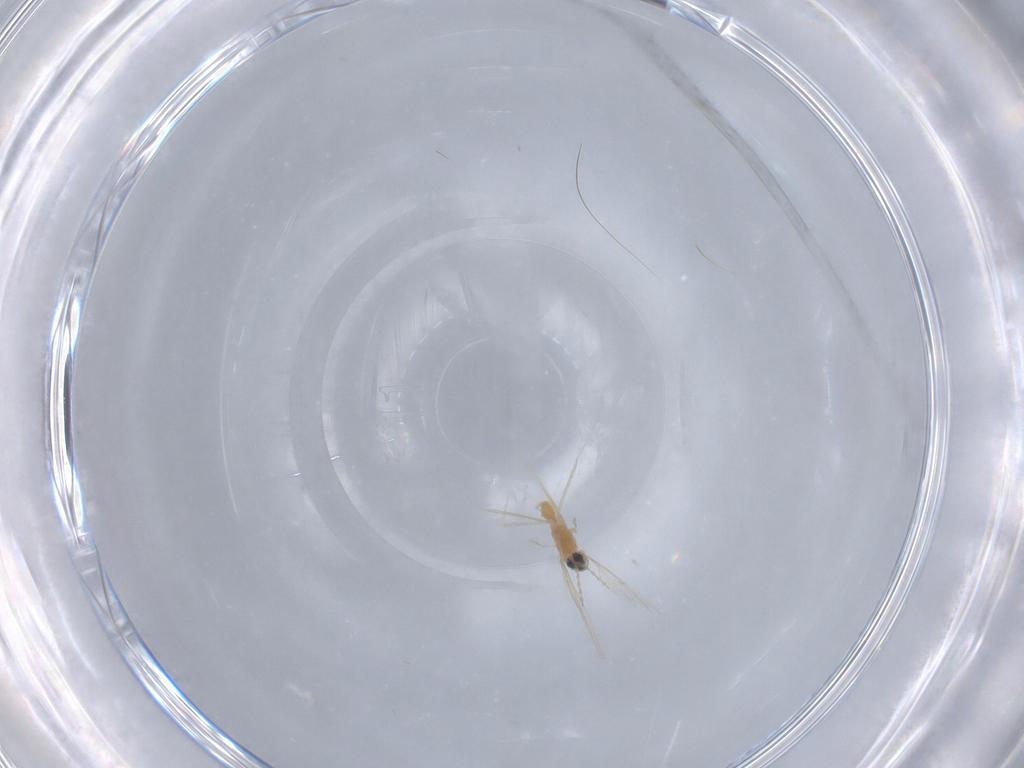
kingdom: Animalia
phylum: Arthropoda
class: Insecta
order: Diptera
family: Cecidomyiidae
